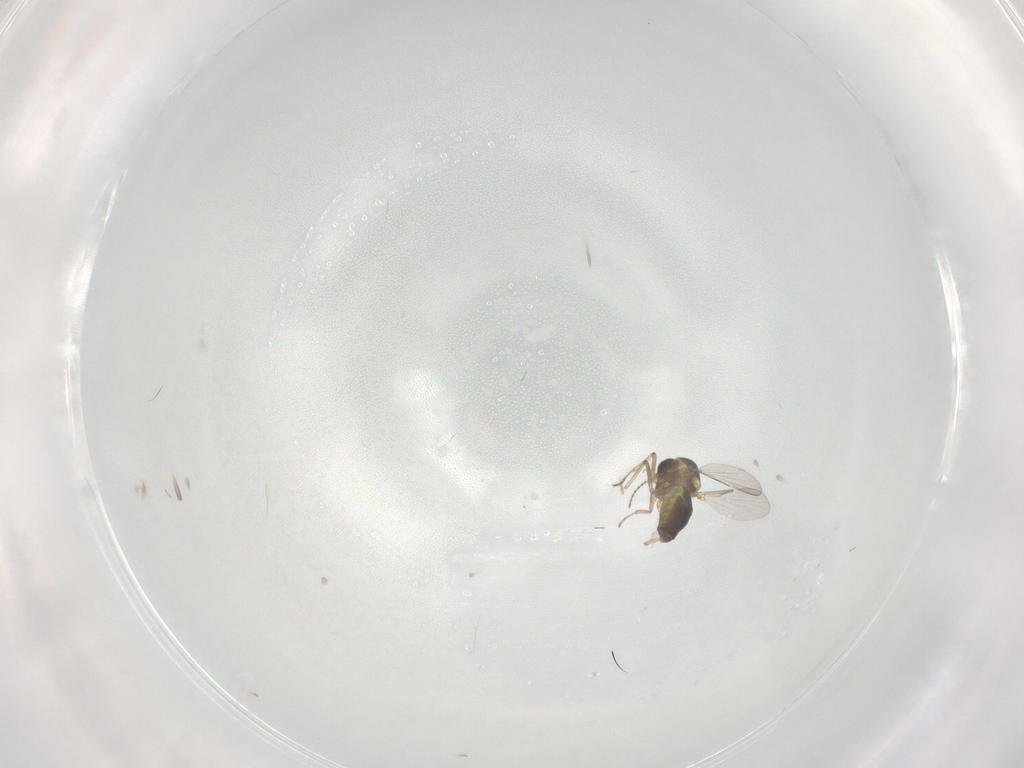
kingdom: Animalia
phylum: Arthropoda
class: Insecta
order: Diptera
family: Ceratopogonidae
